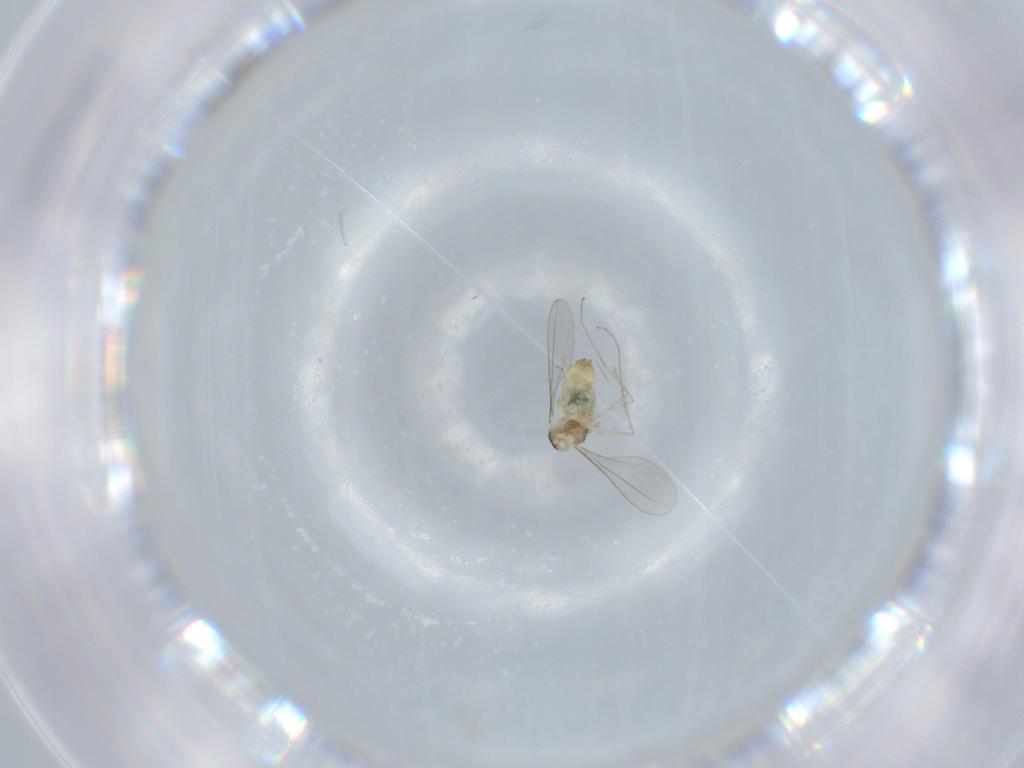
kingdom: Animalia
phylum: Arthropoda
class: Insecta
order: Diptera
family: Cecidomyiidae
